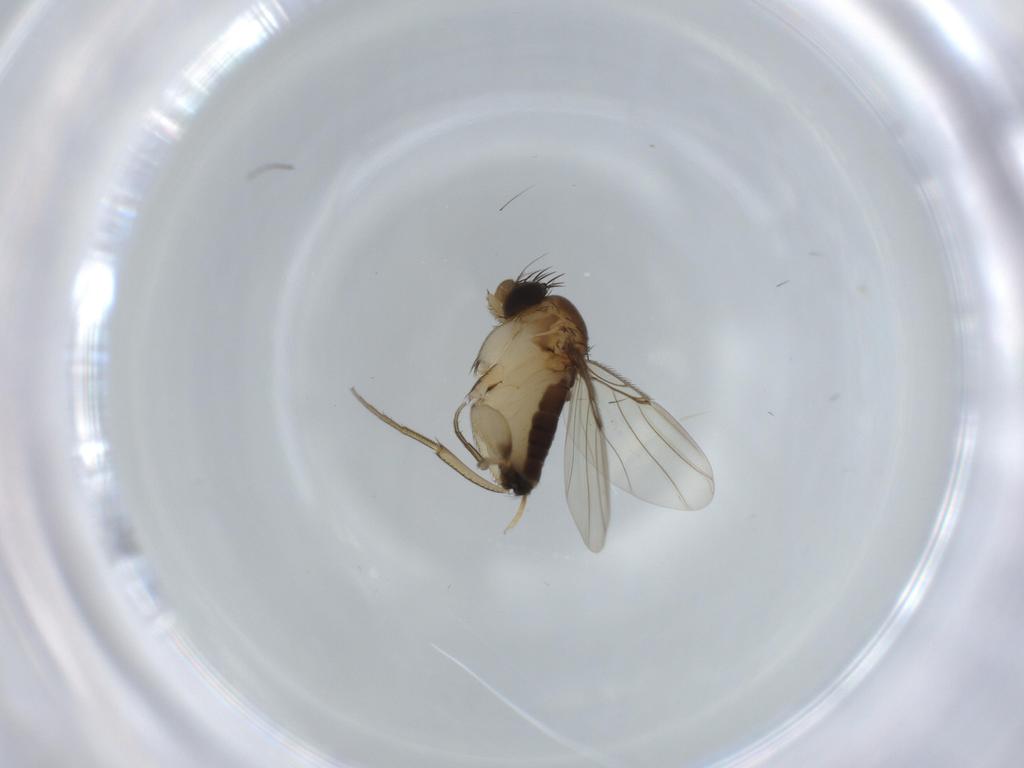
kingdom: Animalia
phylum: Arthropoda
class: Insecta
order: Diptera
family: Phoridae
